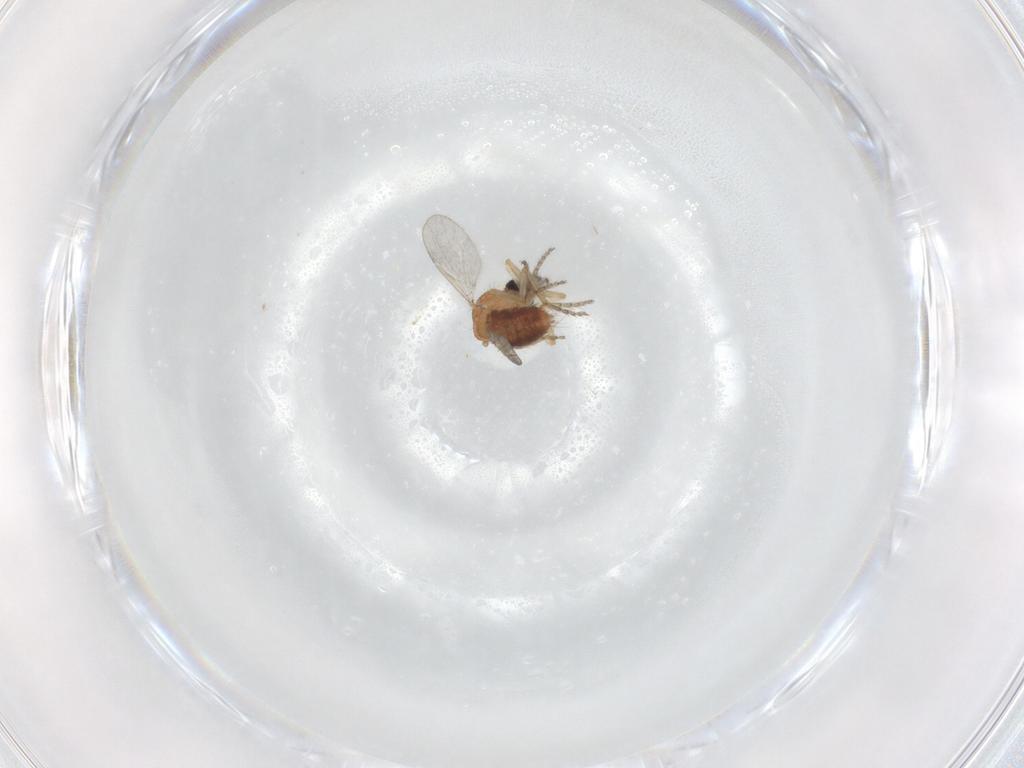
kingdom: Animalia
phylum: Arthropoda
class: Insecta
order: Diptera
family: Ceratopogonidae
